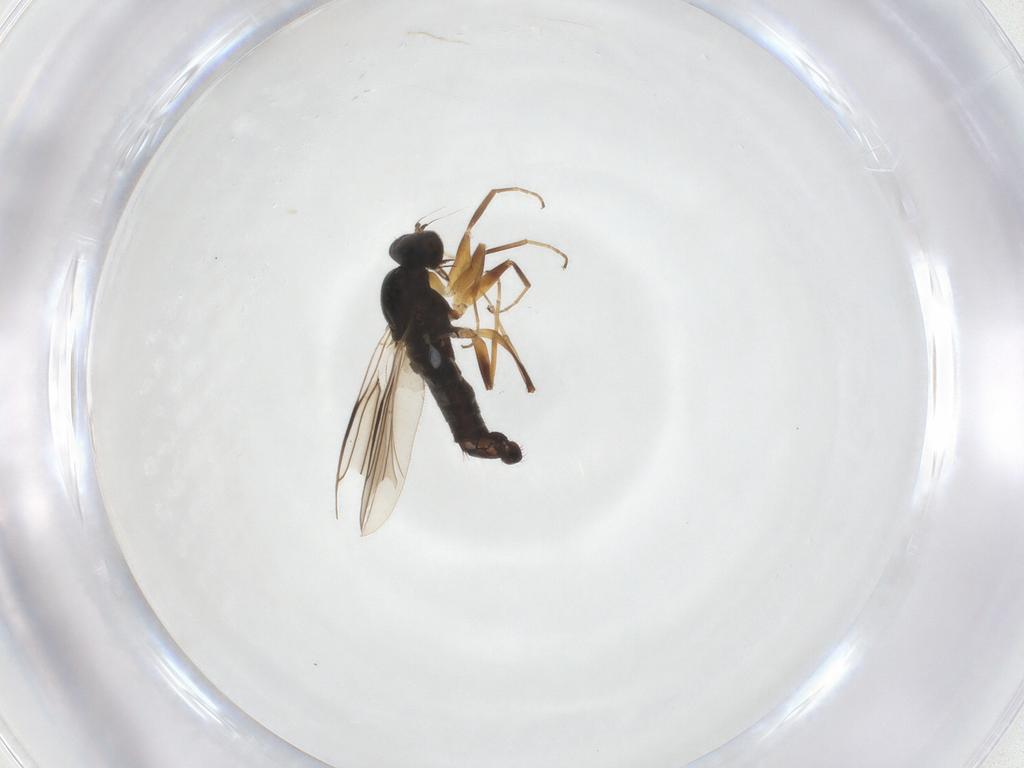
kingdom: Animalia
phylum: Arthropoda
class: Insecta
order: Diptera
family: Hybotidae
